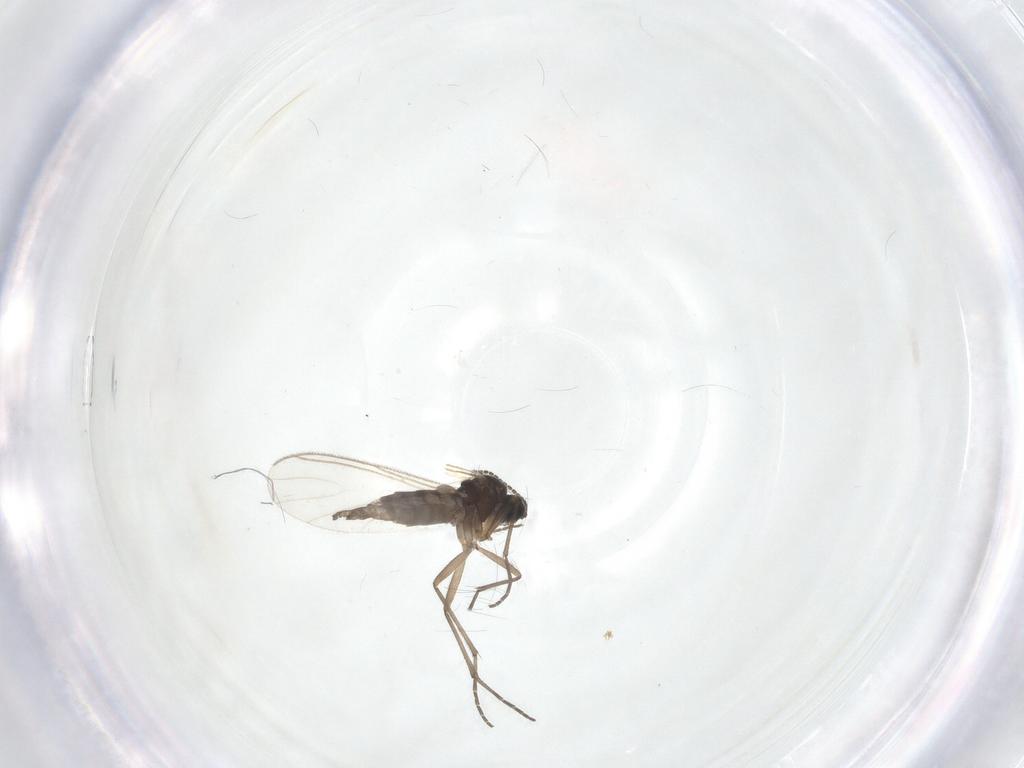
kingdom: Animalia
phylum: Arthropoda
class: Insecta
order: Diptera
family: Sciaridae
